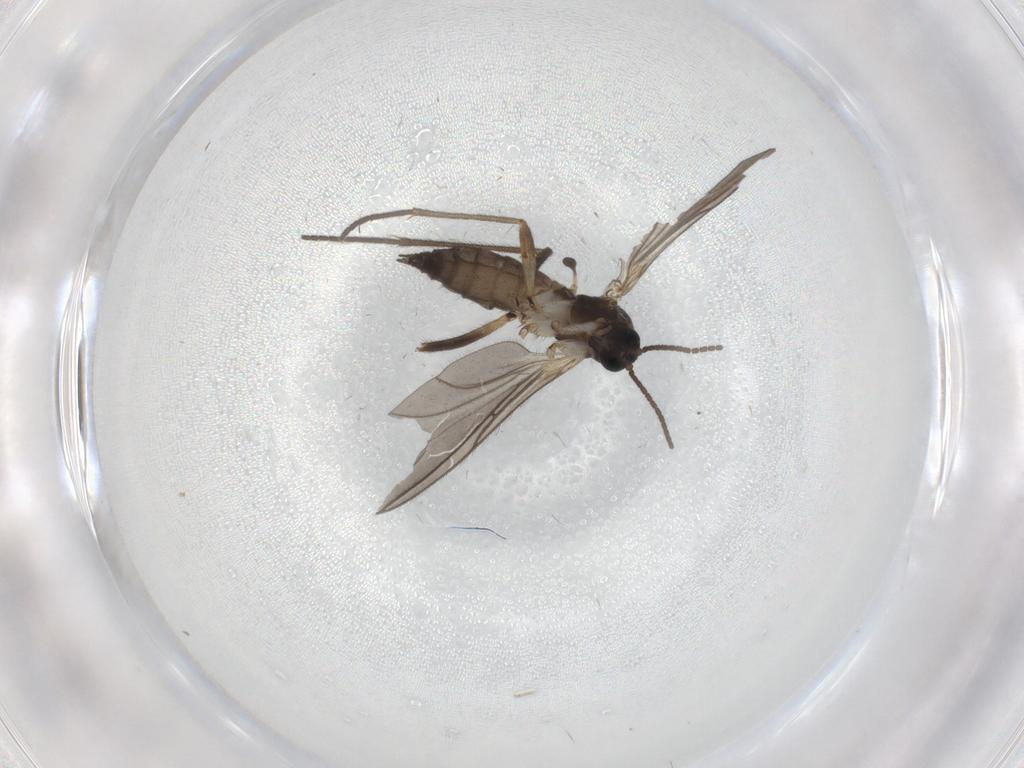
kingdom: Animalia
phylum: Arthropoda
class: Insecta
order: Diptera
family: Sciaridae
